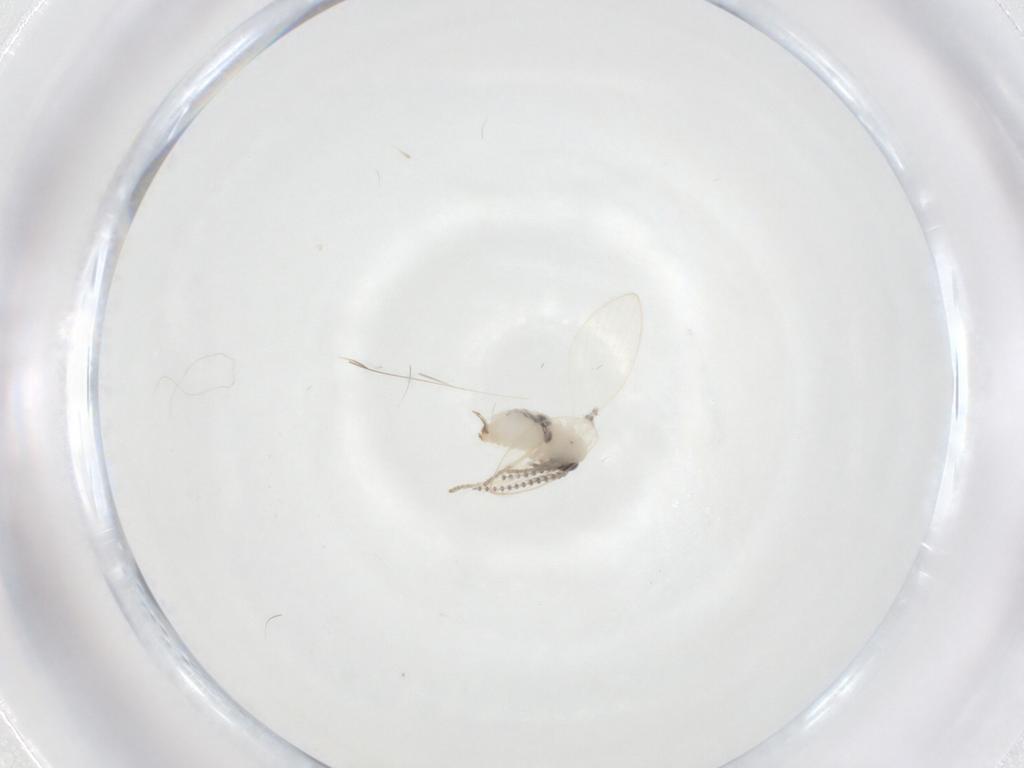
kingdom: Animalia
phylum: Arthropoda
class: Insecta
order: Diptera
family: Psychodidae
